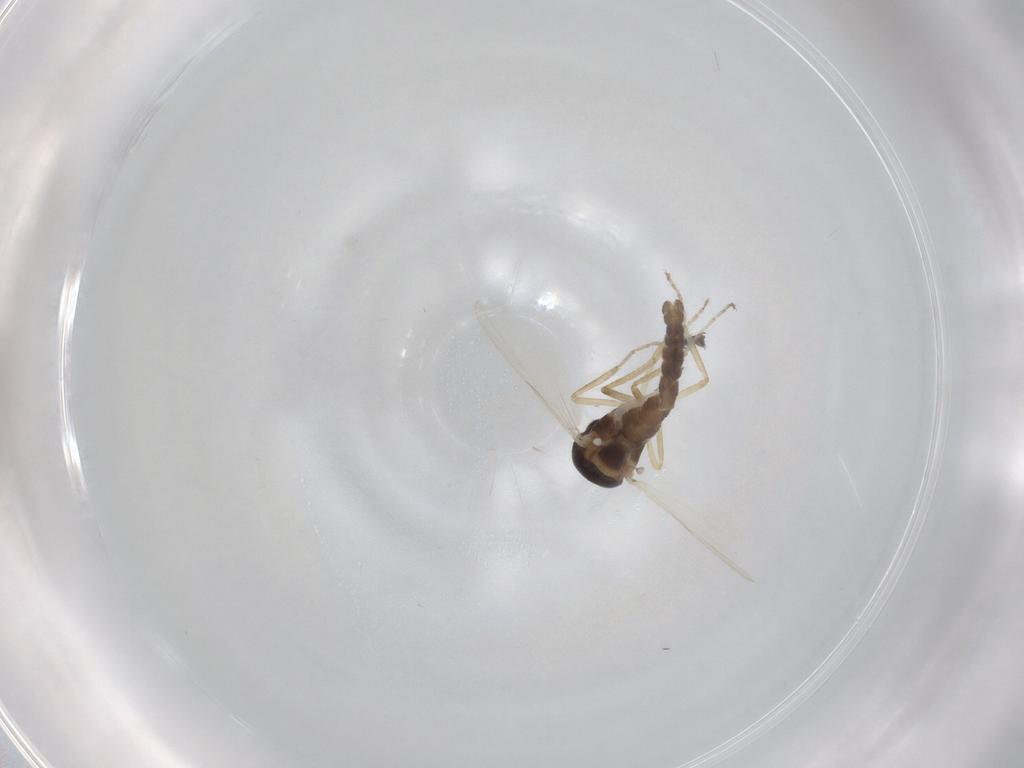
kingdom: Animalia
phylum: Arthropoda
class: Insecta
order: Diptera
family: Ceratopogonidae
